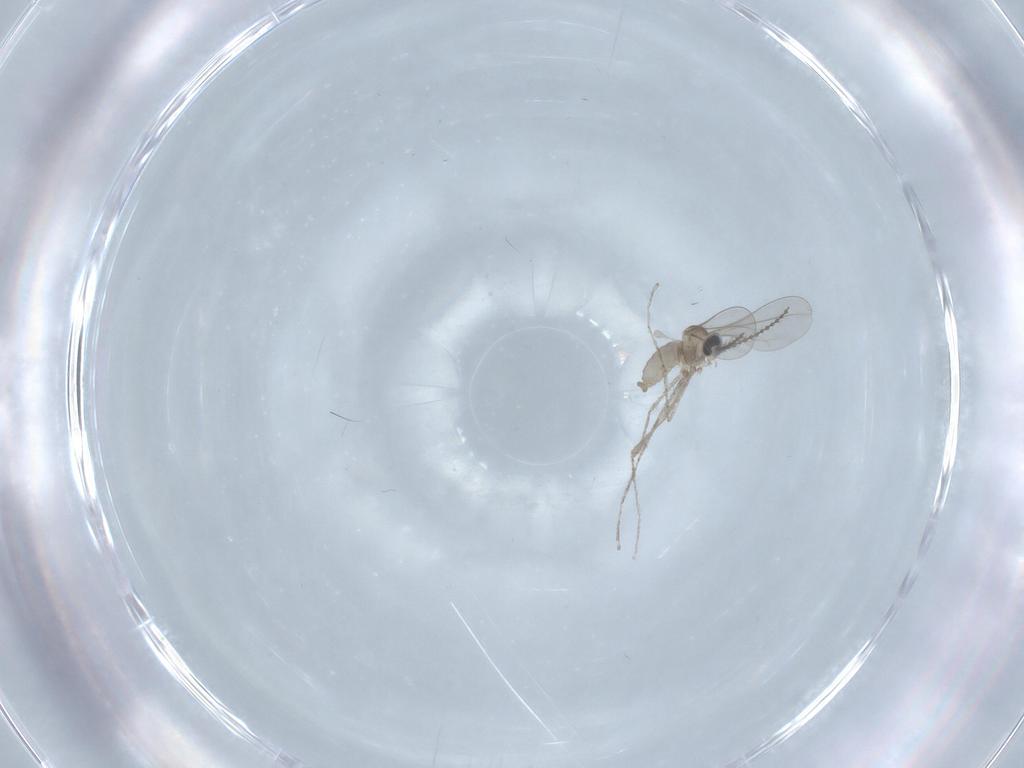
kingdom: Animalia
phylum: Arthropoda
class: Insecta
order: Diptera
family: Cecidomyiidae
